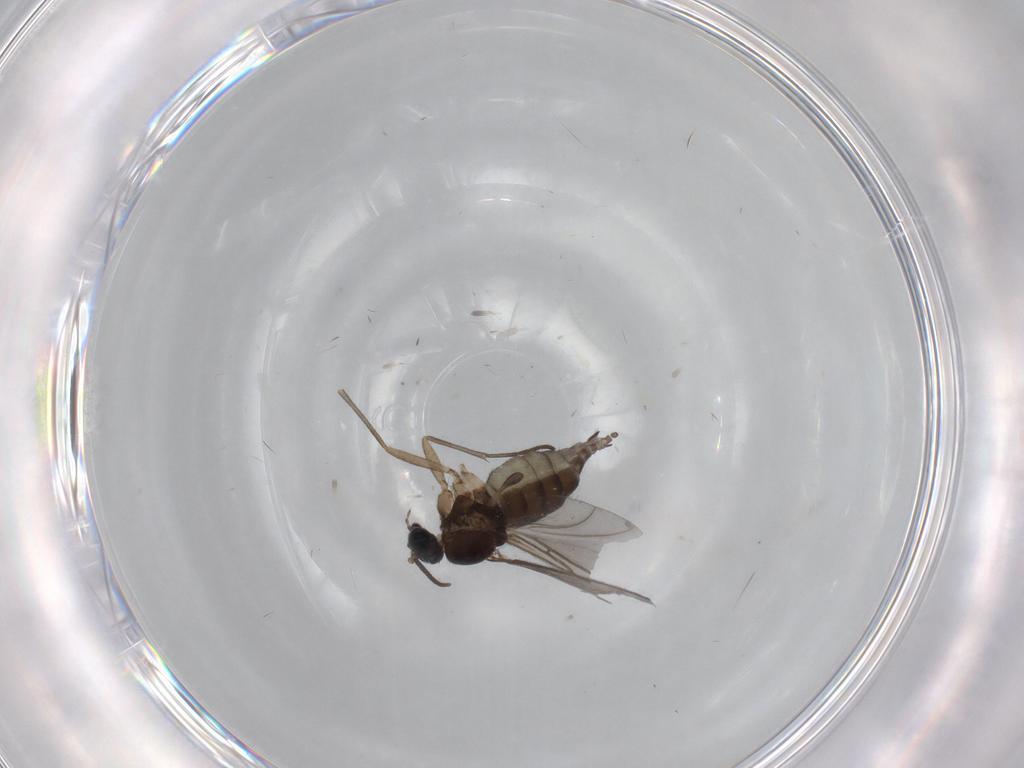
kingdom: Animalia
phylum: Arthropoda
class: Insecta
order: Diptera
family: Sciaridae
